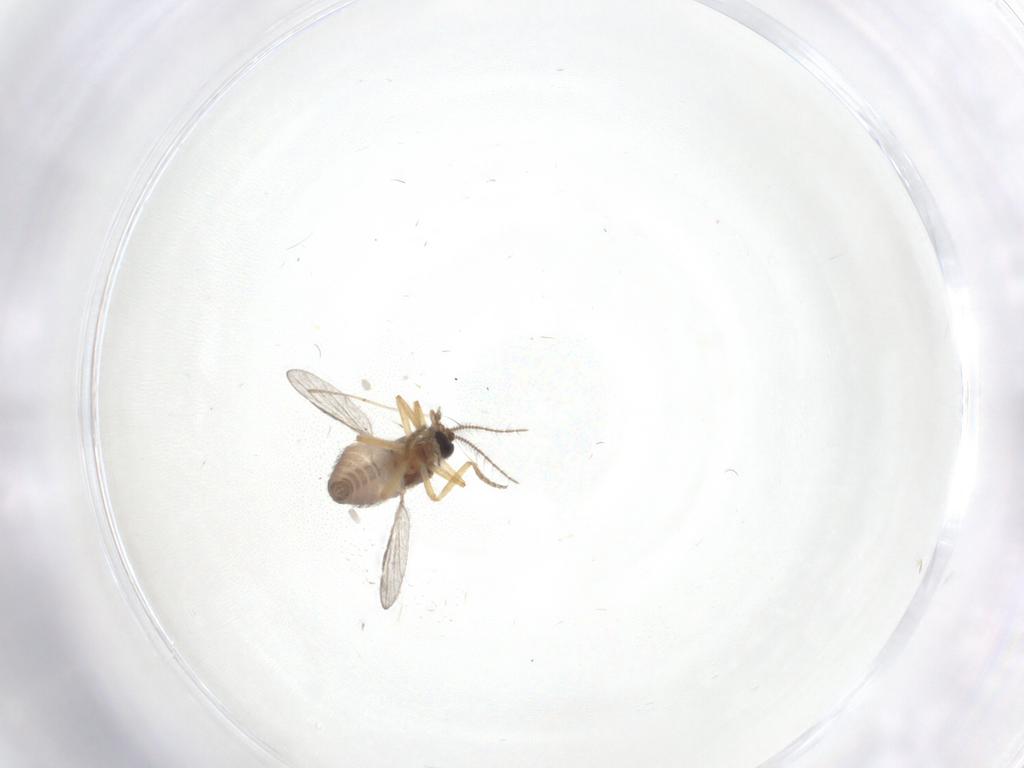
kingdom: Animalia
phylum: Arthropoda
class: Insecta
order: Diptera
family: Ceratopogonidae
